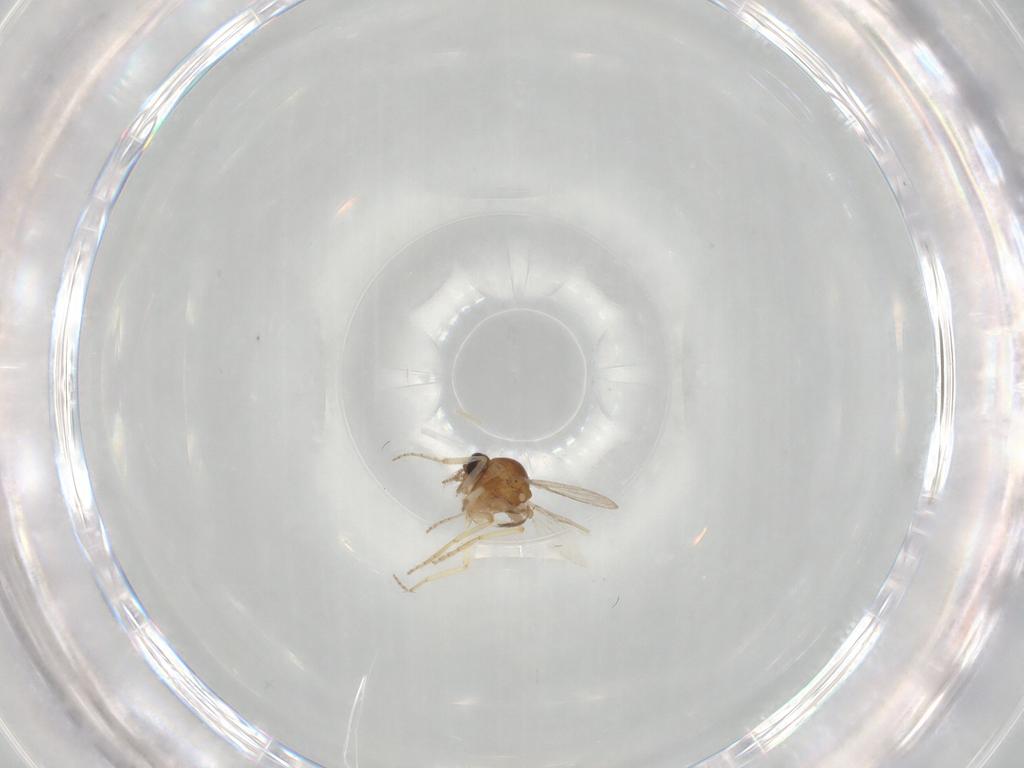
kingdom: Animalia
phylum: Arthropoda
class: Insecta
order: Diptera
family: Ceratopogonidae
